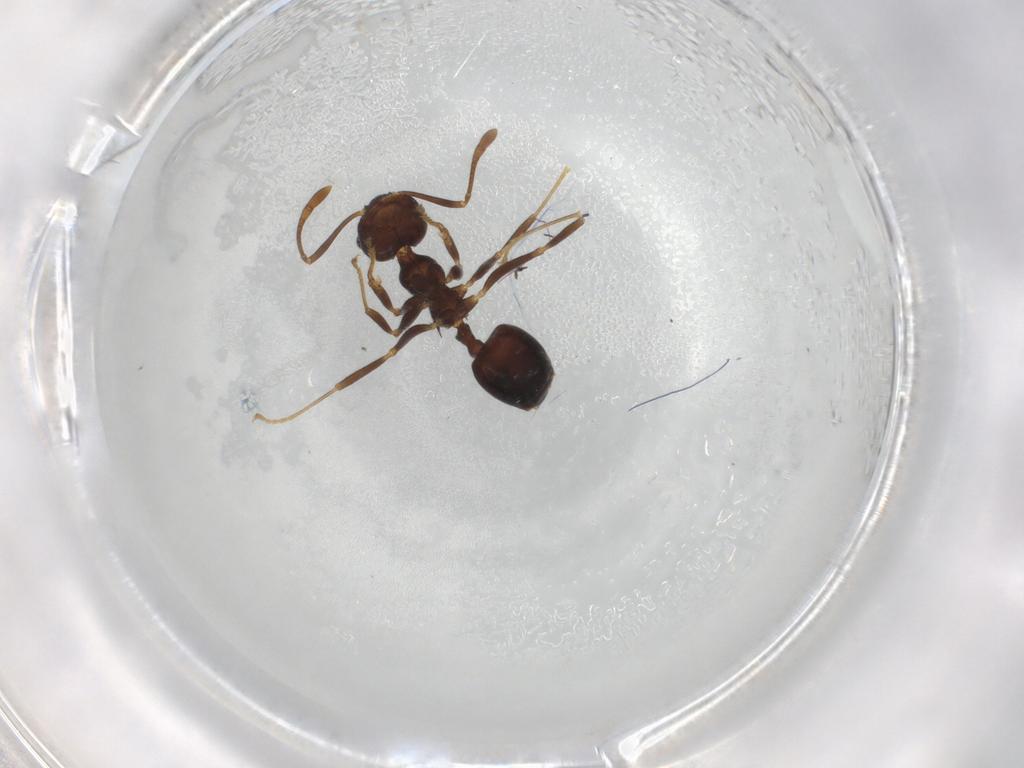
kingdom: Animalia
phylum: Arthropoda
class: Insecta
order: Hymenoptera
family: Formicidae
